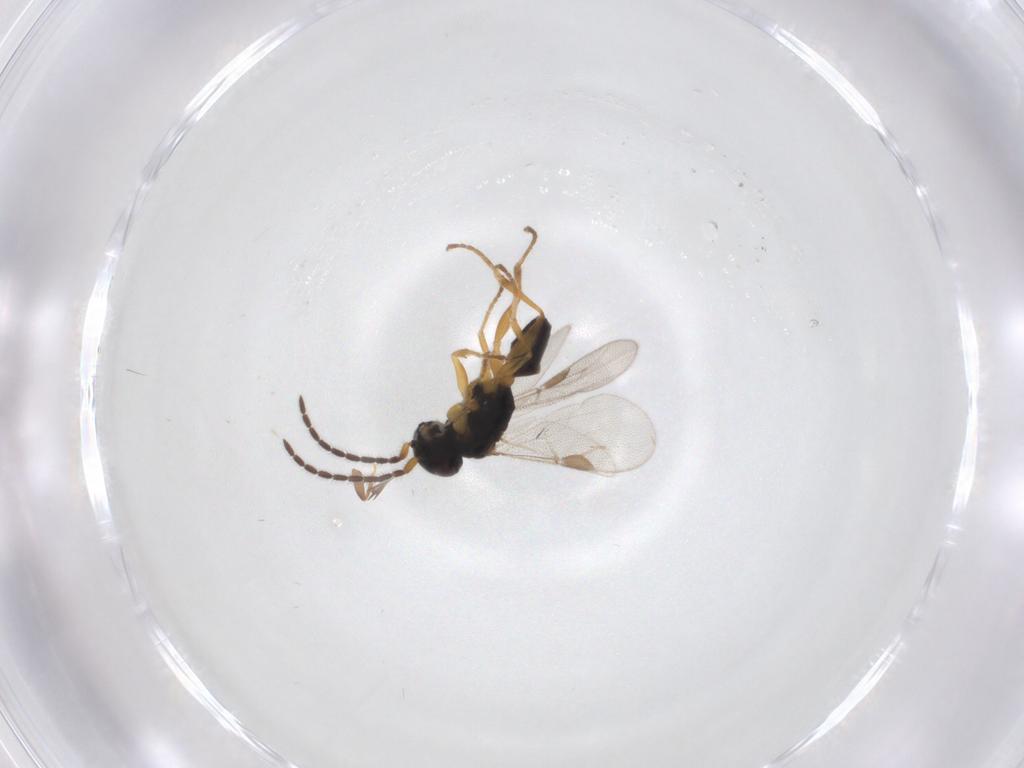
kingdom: Animalia
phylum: Arthropoda
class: Insecta
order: Hymenoptera
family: Dryinidae
